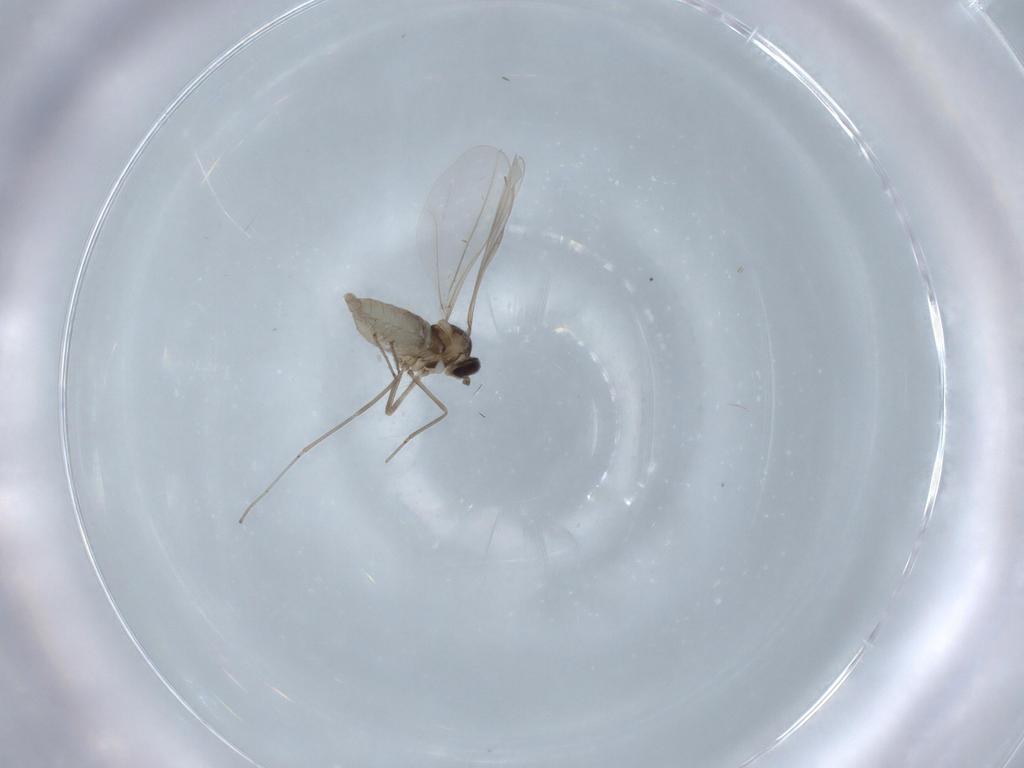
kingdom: Animalia
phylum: Arthropoda
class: Insecta
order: Diptera
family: Cecidomyiidae
